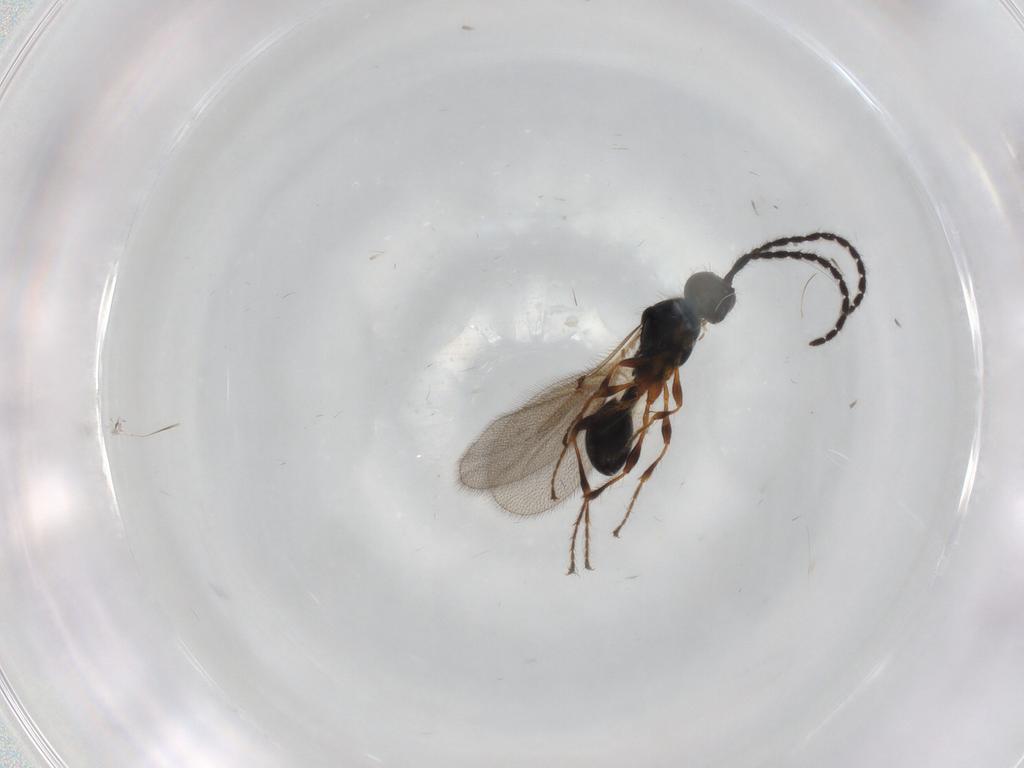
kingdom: Animalia
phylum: Arthropoda
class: Insecta
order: Hymenoptera
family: Diapriidae
